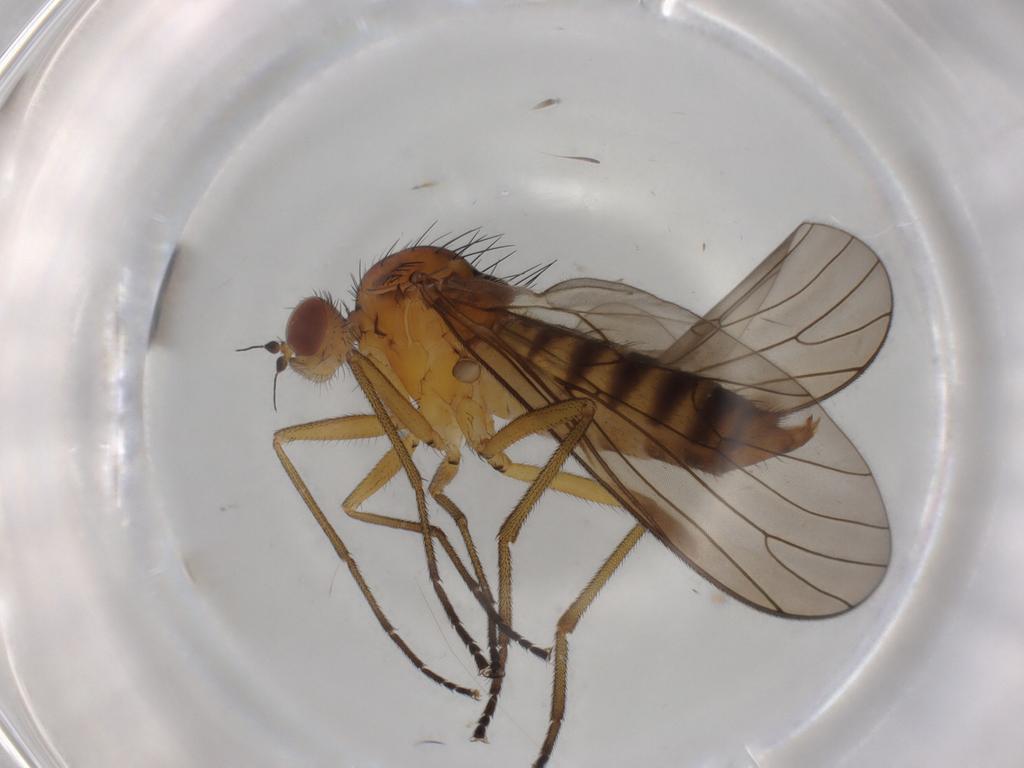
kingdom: Animalia
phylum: Arthropoda
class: Insecta
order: Diptera
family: Brachystomatidae
